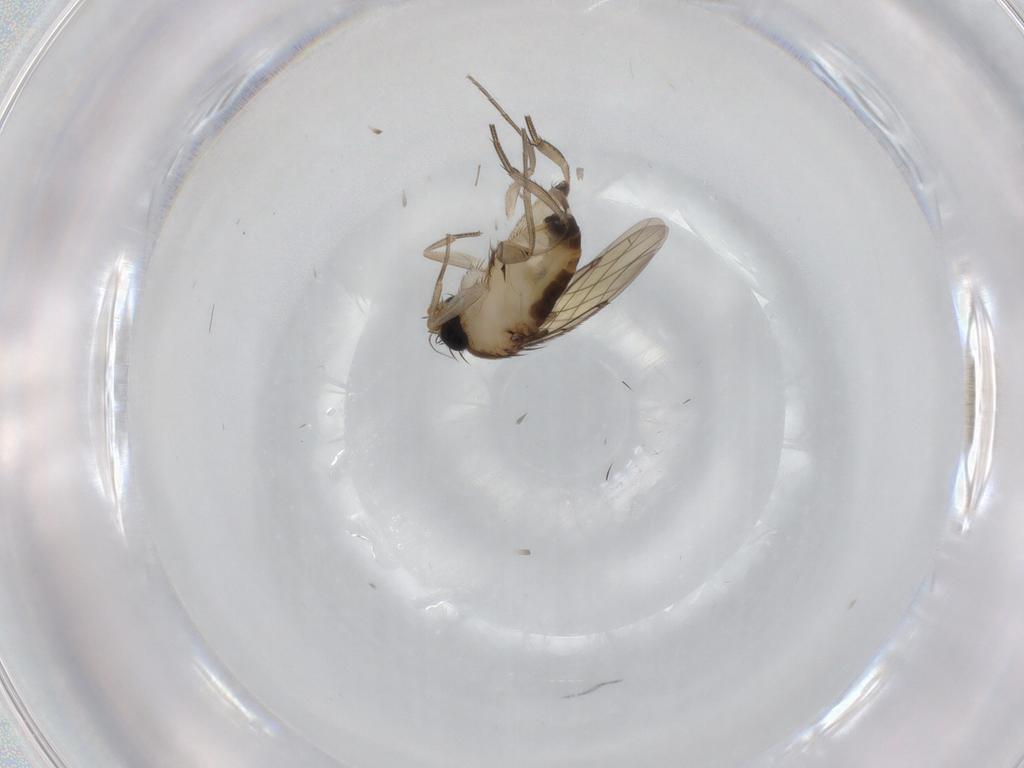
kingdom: Animalia
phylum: Arthropoda
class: Insecta
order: Diptera
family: Phoridae
